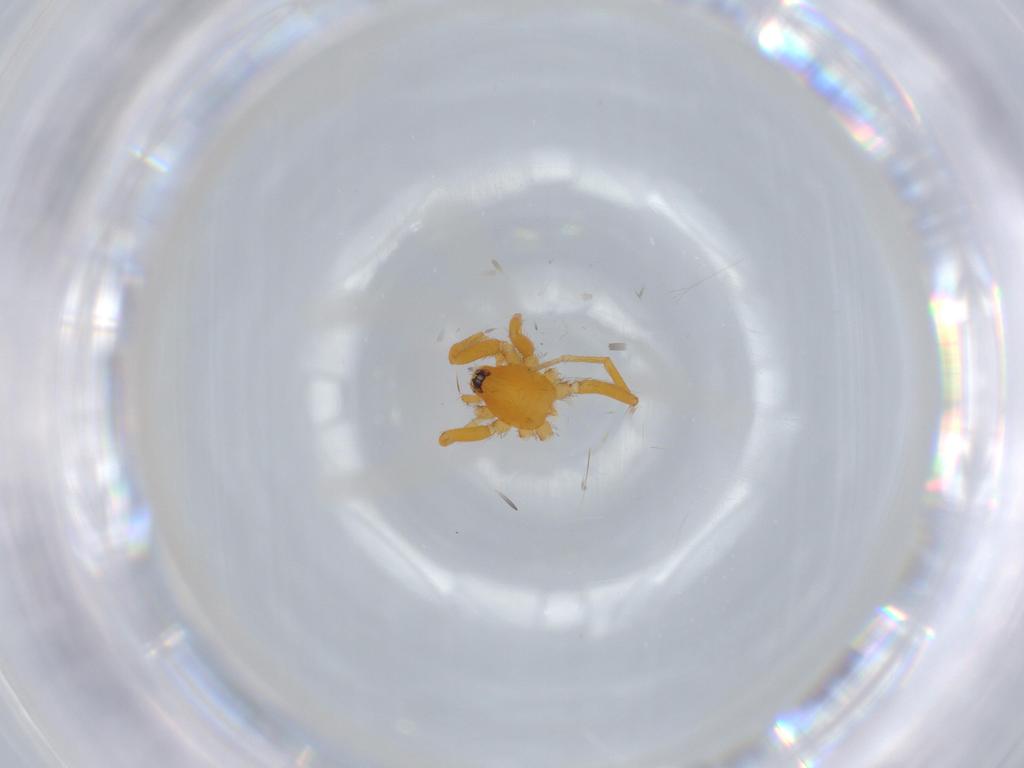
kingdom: Animalia
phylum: Arthropoda
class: Arachnida
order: Araneae
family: Oonopidae
